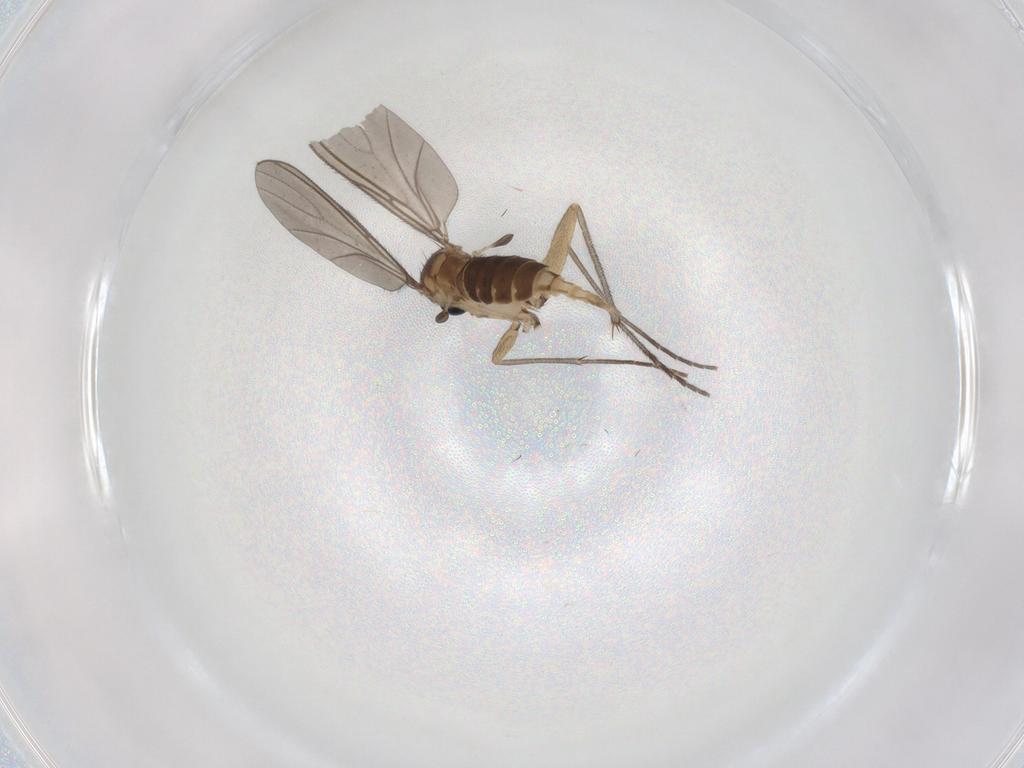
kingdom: Animalia
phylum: Arthropoda
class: Insecta
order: Diptera
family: Sciaridae
